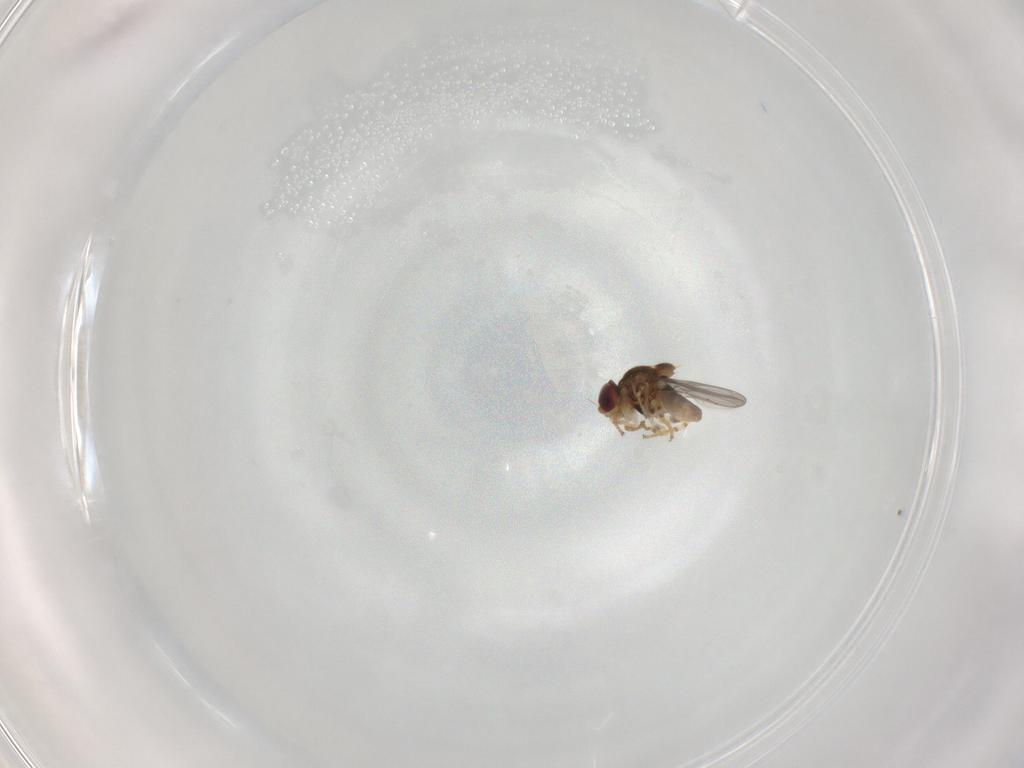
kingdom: Animalia
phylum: Arthropoda
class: Insecta
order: Diptera
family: Chloropidae
